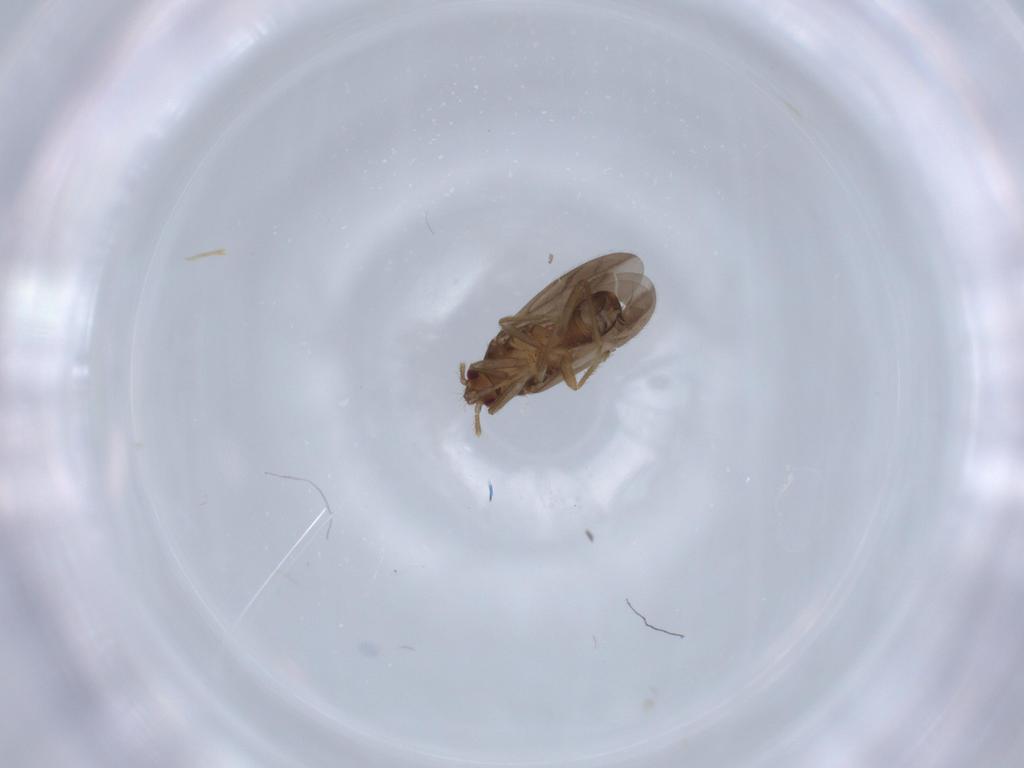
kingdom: Animalia
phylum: Arthropoda
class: Insecta
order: Hemiptera
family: Ceratocombidae
